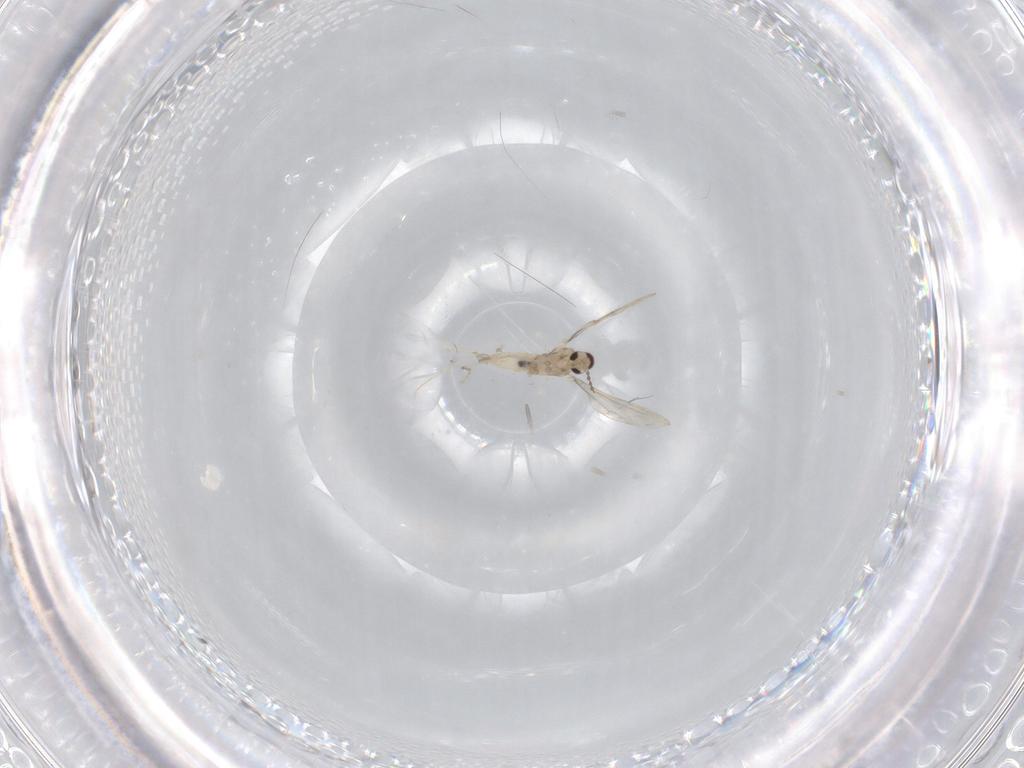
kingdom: Animalia
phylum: Arthropoda
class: Insecta
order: Diptera
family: Cecidomyiidae
